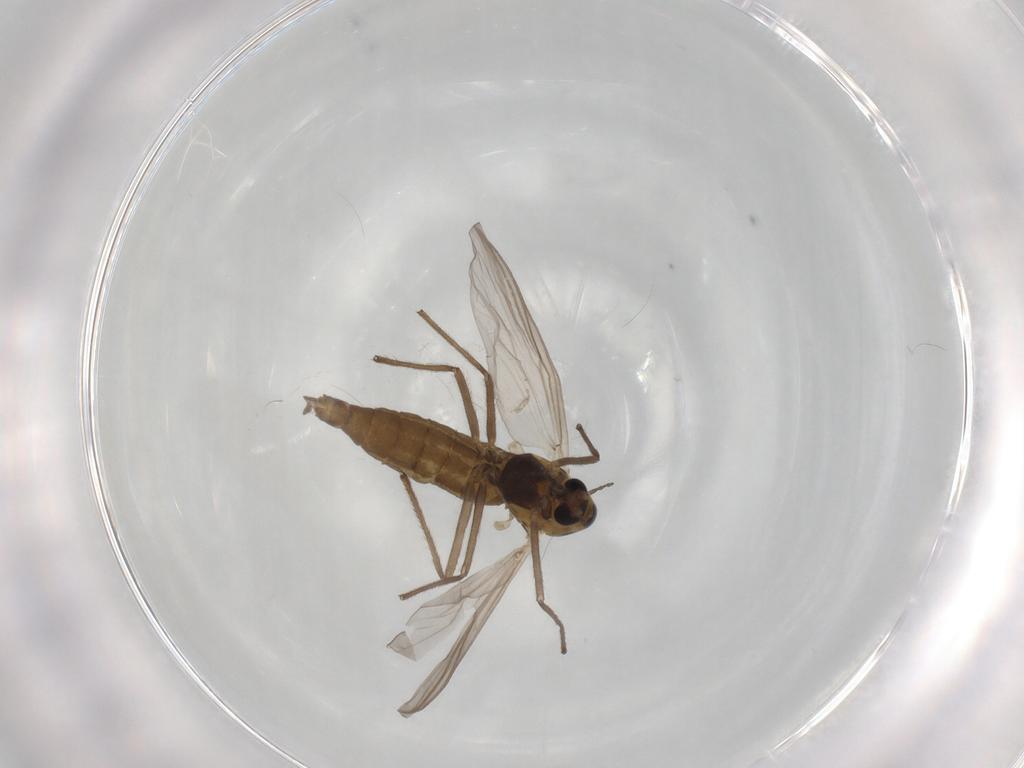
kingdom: Animalia
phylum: Arthropoda
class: Insecta
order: Diptera
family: Chironomidae
